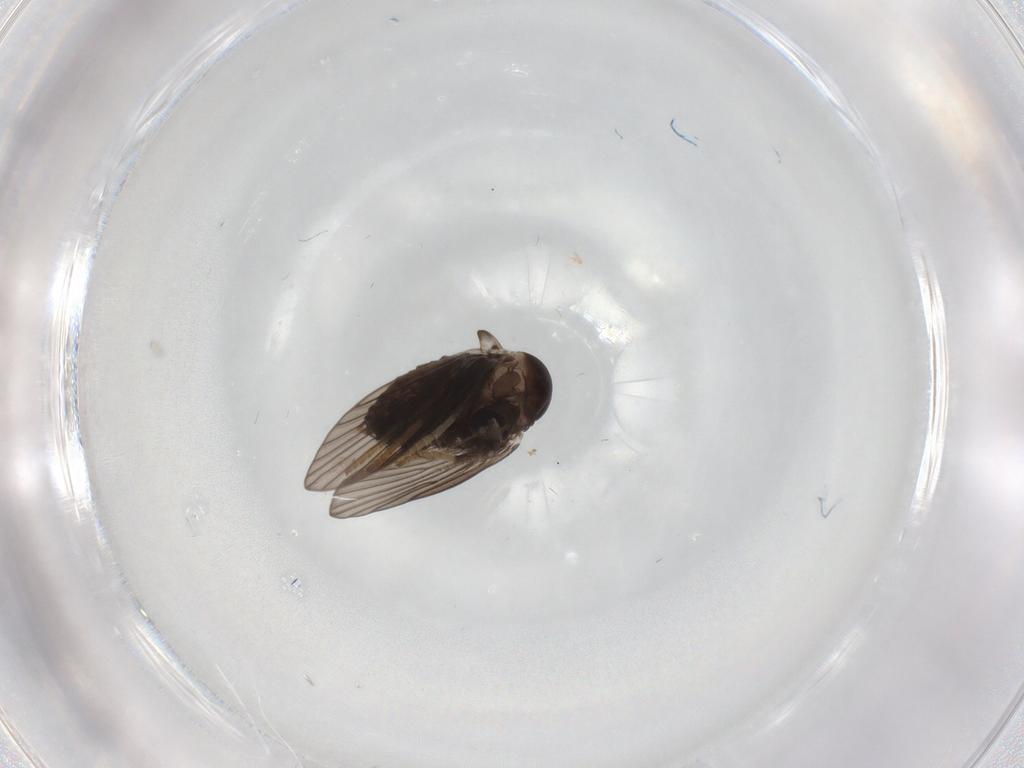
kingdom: Animalia
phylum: Arthropoda
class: Insecta
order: Diptera
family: Psychodidae
